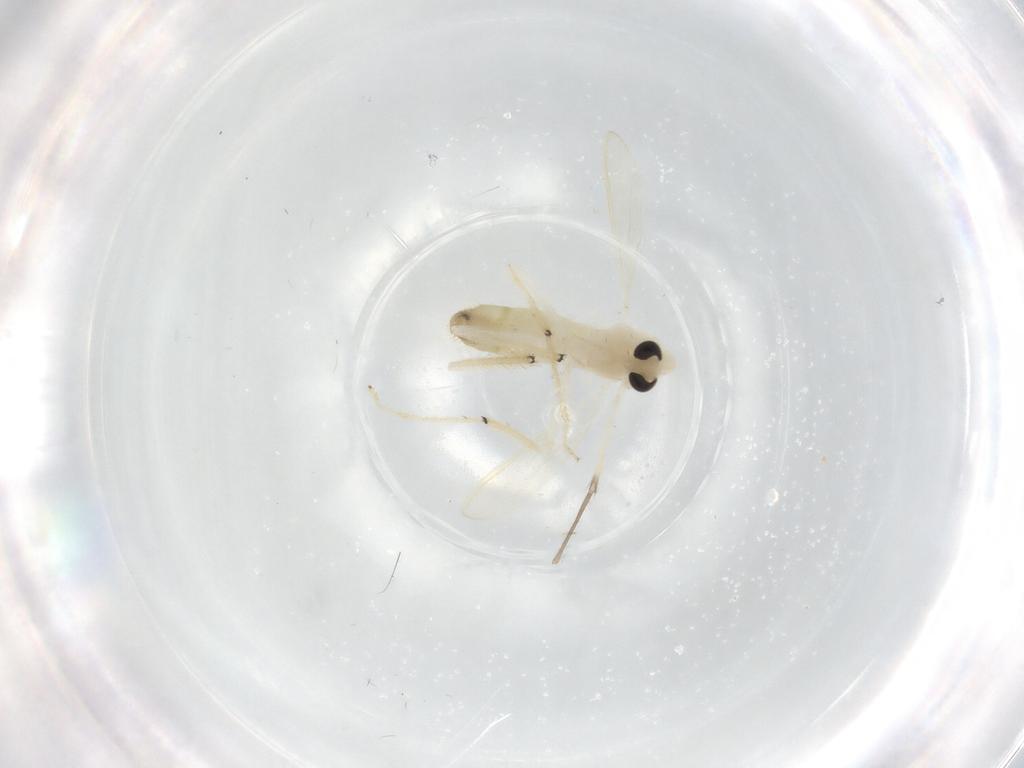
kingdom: Animalia
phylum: Arthropoda
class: Insecta
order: Diptera
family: Chironomidae
